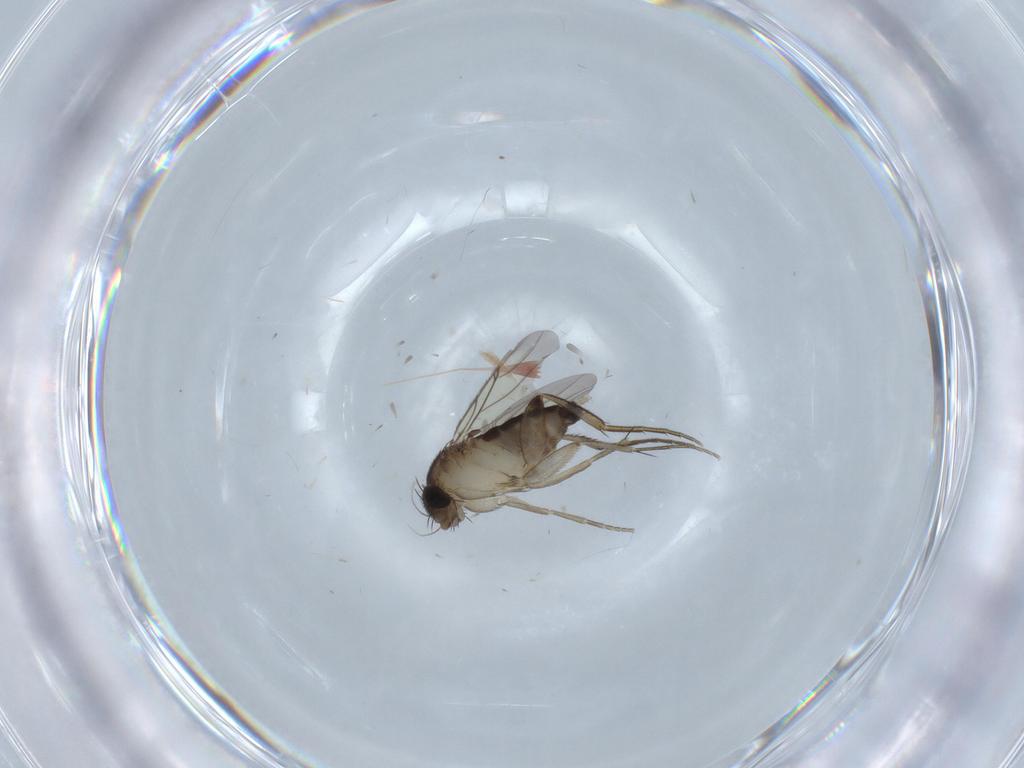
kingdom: Animalia
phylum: Arthropoda
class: Insecta
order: Diptera
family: Phoridae
